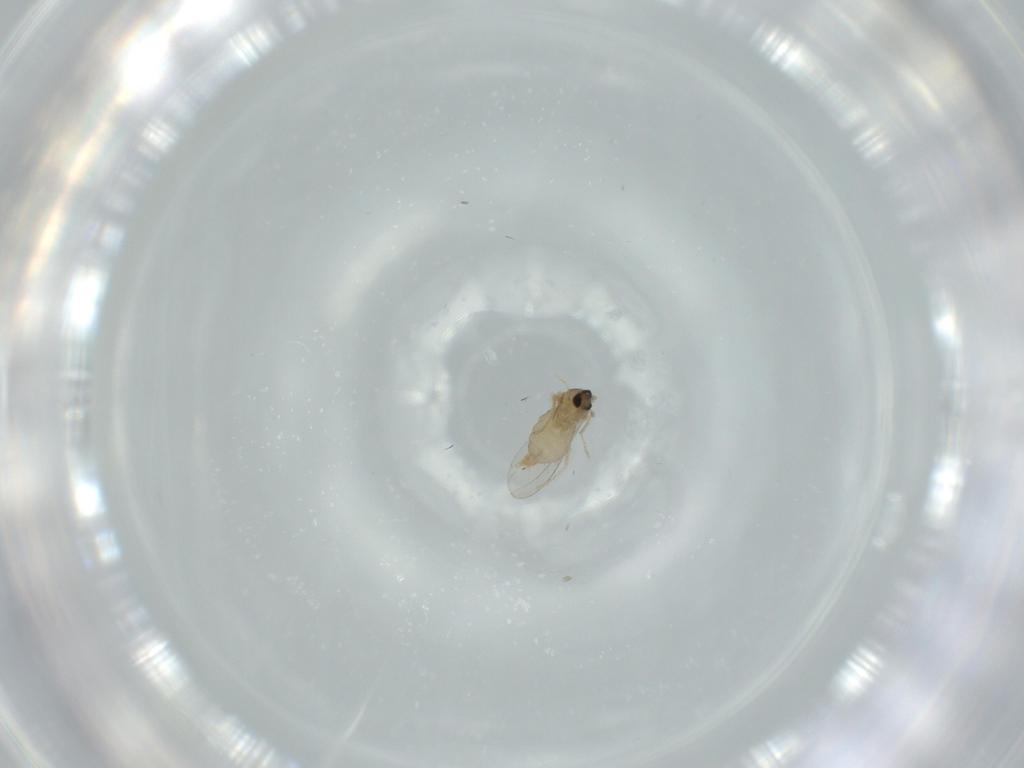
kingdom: Animalia
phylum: Arthropoda
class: Insecta
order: Diptera
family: Cecidomyiidae
